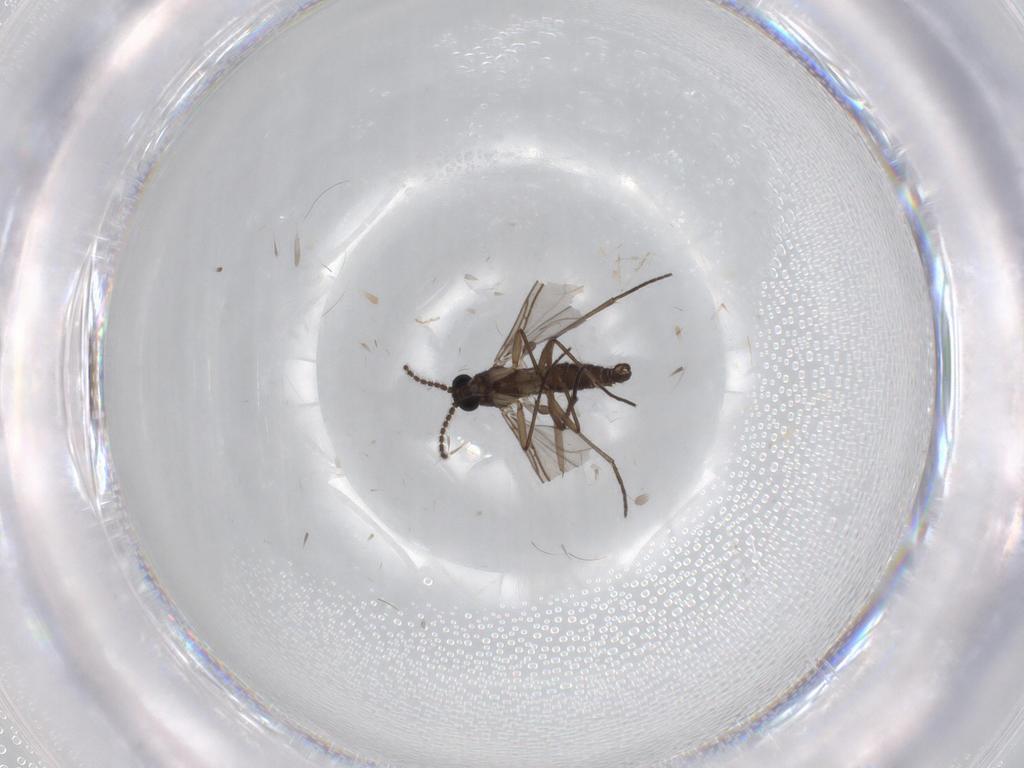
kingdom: Animalia
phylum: Arthropoda
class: Insecta
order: Diptera
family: Cecidomyiidae
